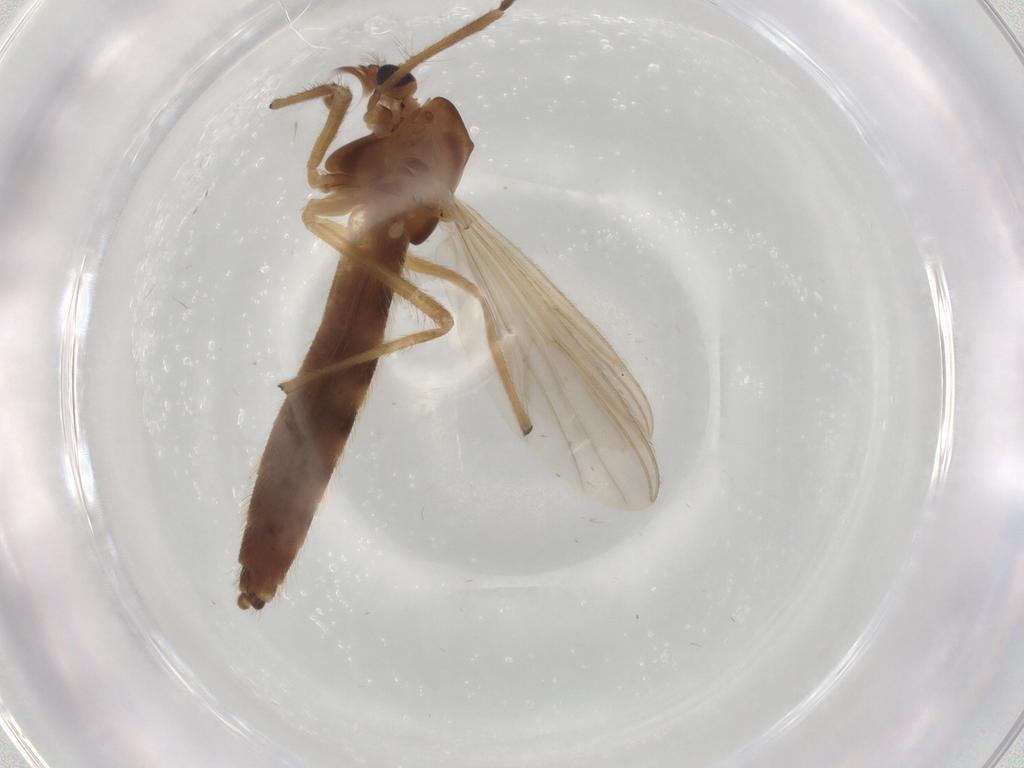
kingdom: Animalia
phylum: Arthropoda
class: Insecta
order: Diptera
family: Chironomidae
